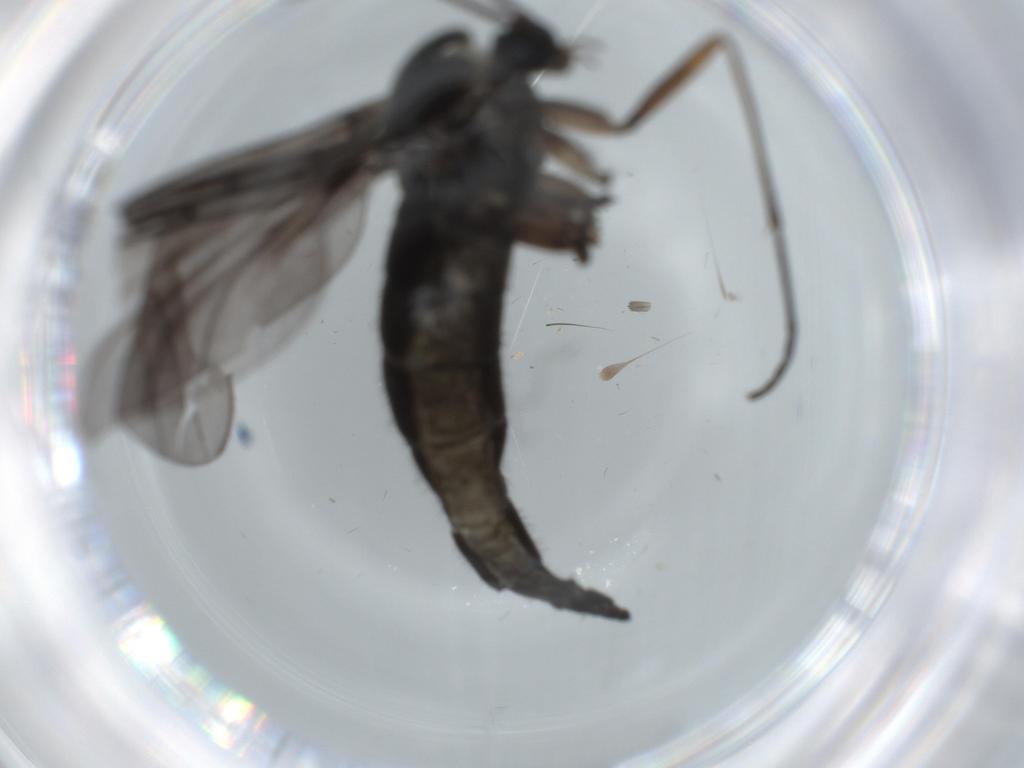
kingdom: Animalia
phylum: Arthropoda
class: Insecta
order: Diptera
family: Sciaridae
